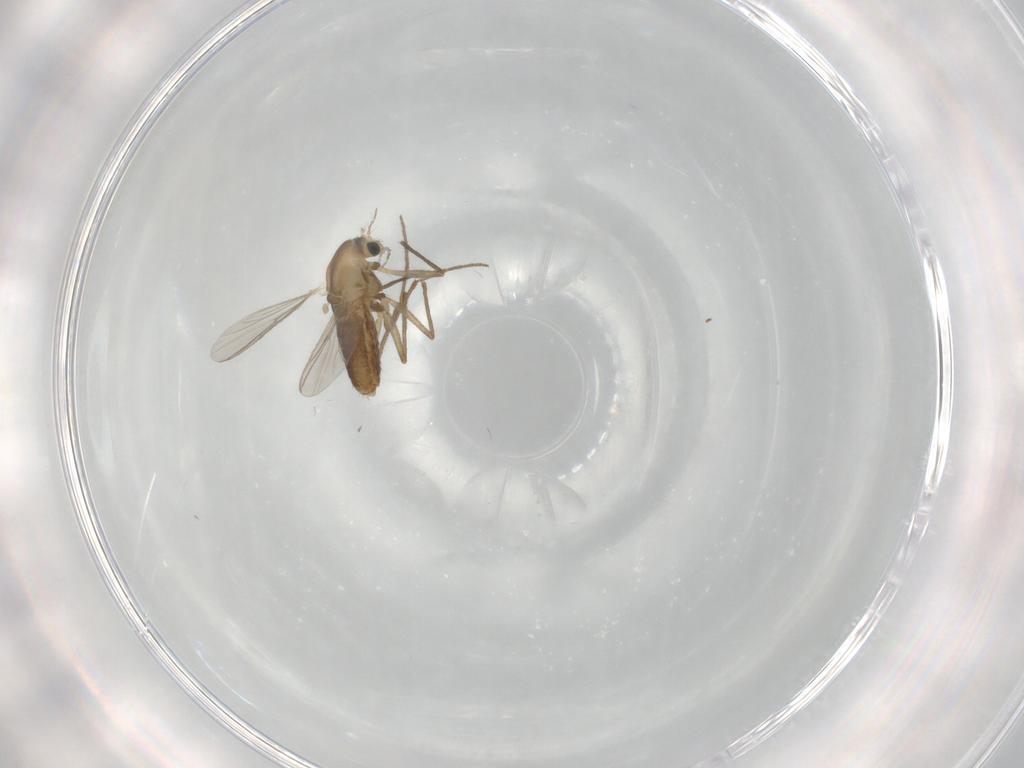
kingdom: Animalia
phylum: Arthropoda
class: Insecta
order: Diptera
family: Chironomidae
